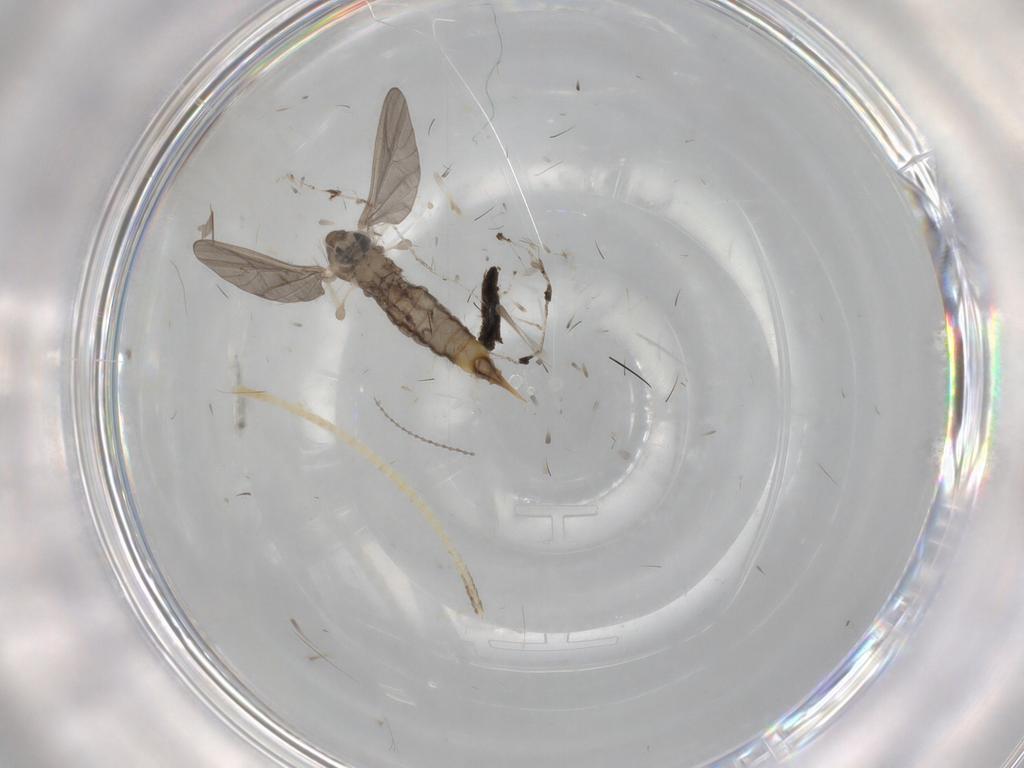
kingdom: Animalia
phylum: Arthropoda
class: Insecta
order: Diptera
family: Limoniidae
